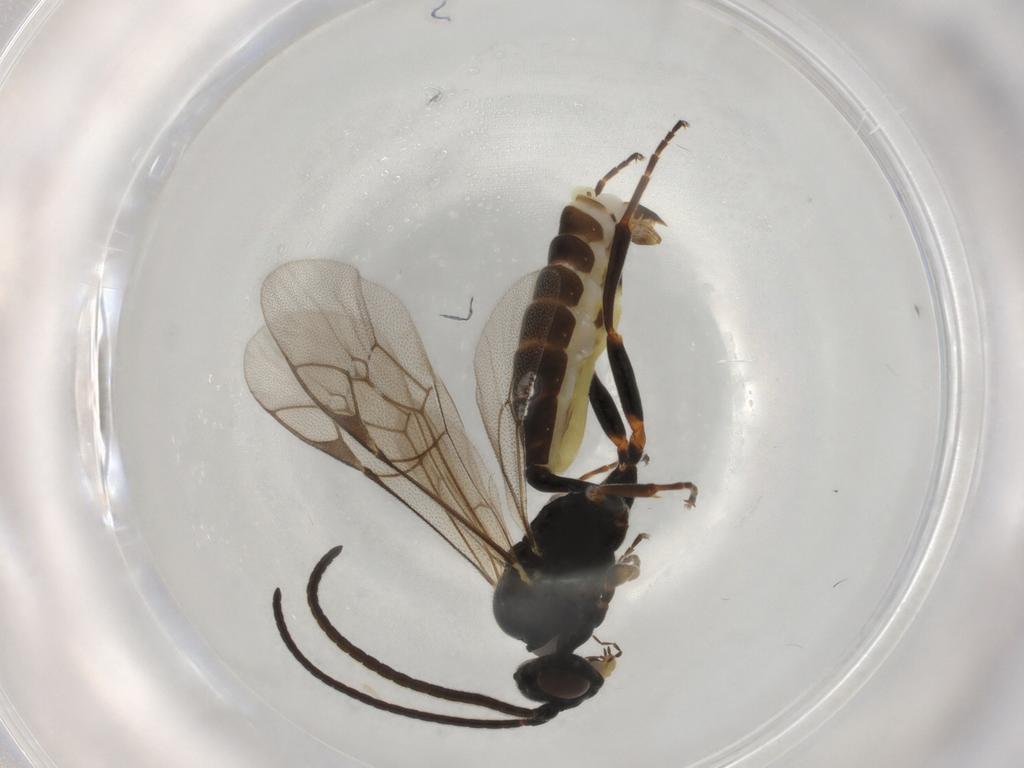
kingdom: Animalia
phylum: Arthropoda
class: Insecta
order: Hymenoptera
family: Ichneumonidae
